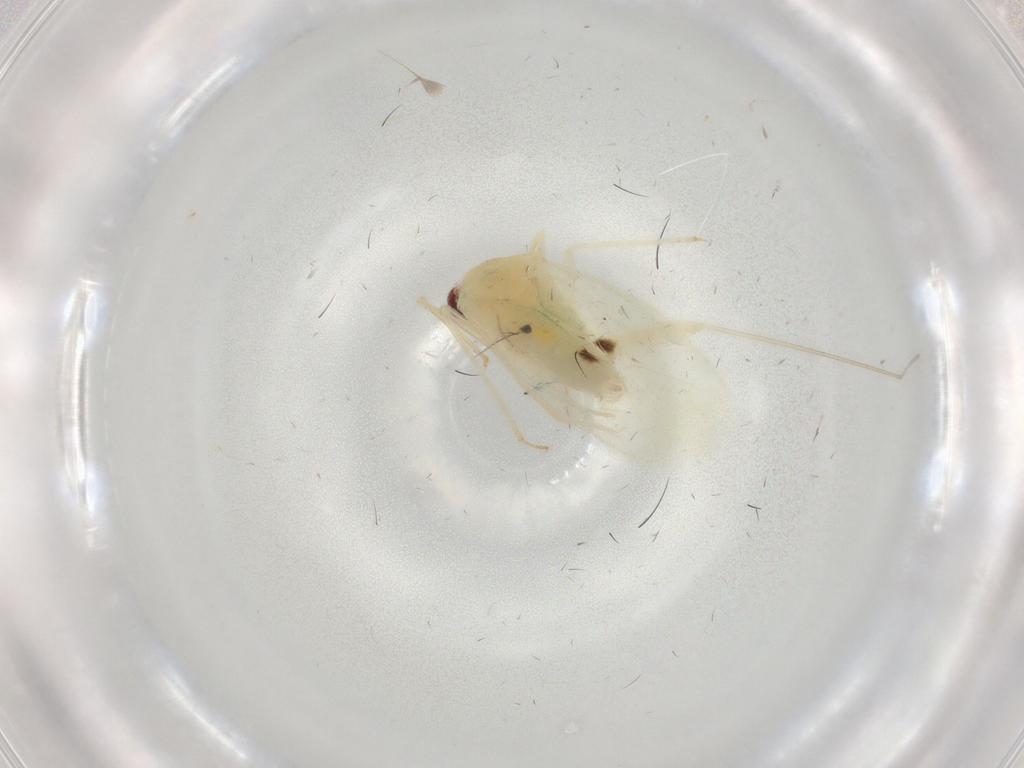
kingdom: Animalia
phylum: Arthropoda
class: Insecta
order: Hemiptera
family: Miridae
